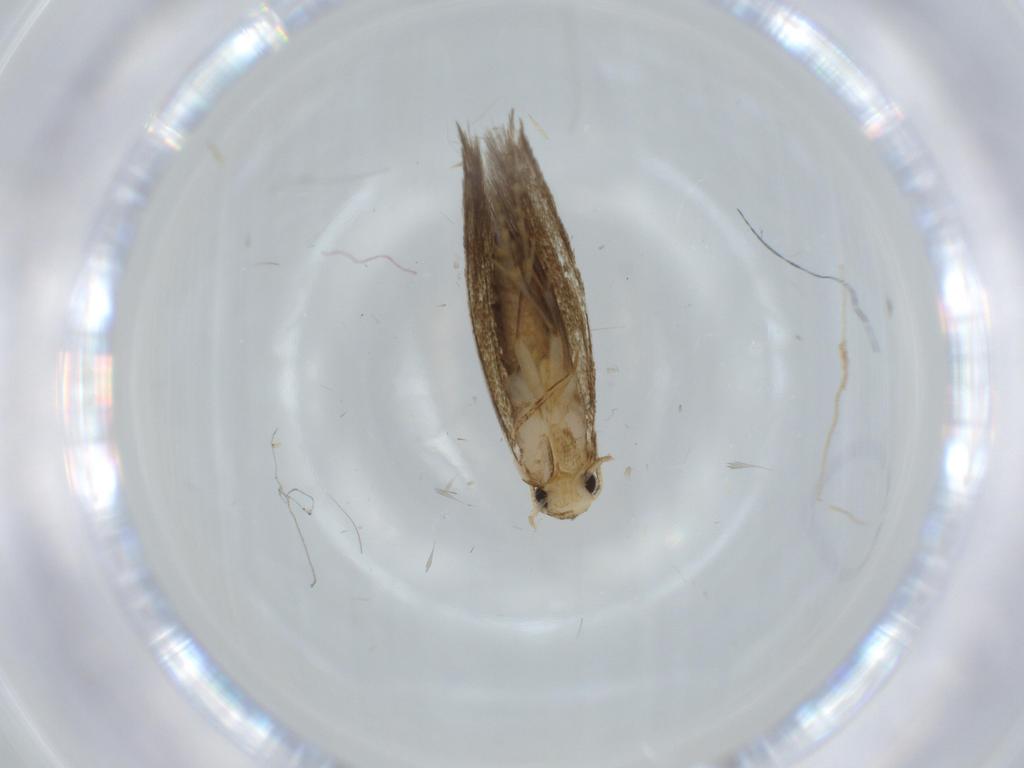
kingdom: Animalia
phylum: Arthropoda
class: Insecta
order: Lepidoptera
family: Tineidae
